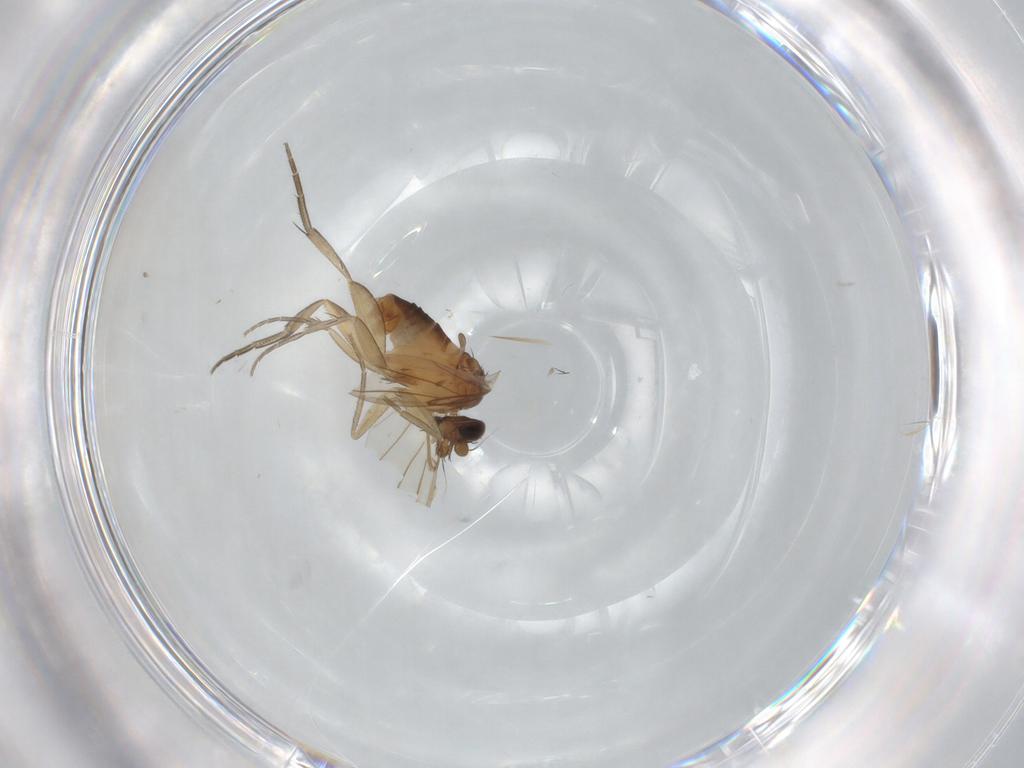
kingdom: Animalia
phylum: Arthropoda
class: Insecta
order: Diptera
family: Phoridae
